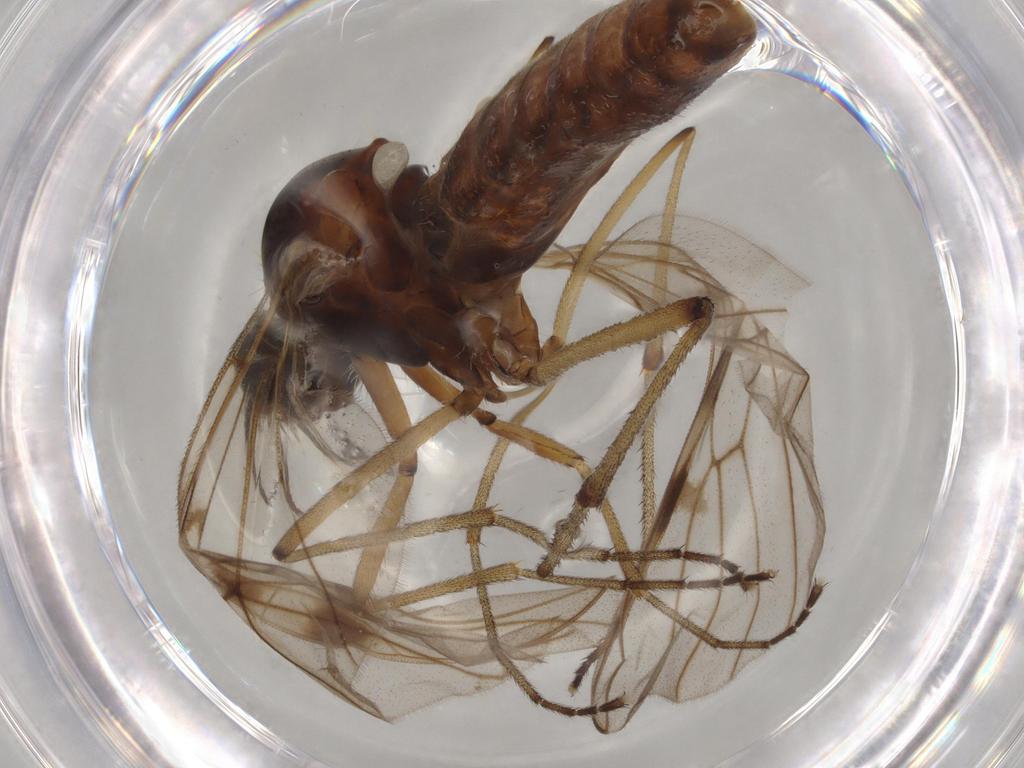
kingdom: Animalia
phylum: Arthropoda
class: Insecta
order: Diptera
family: Anisopodidae
